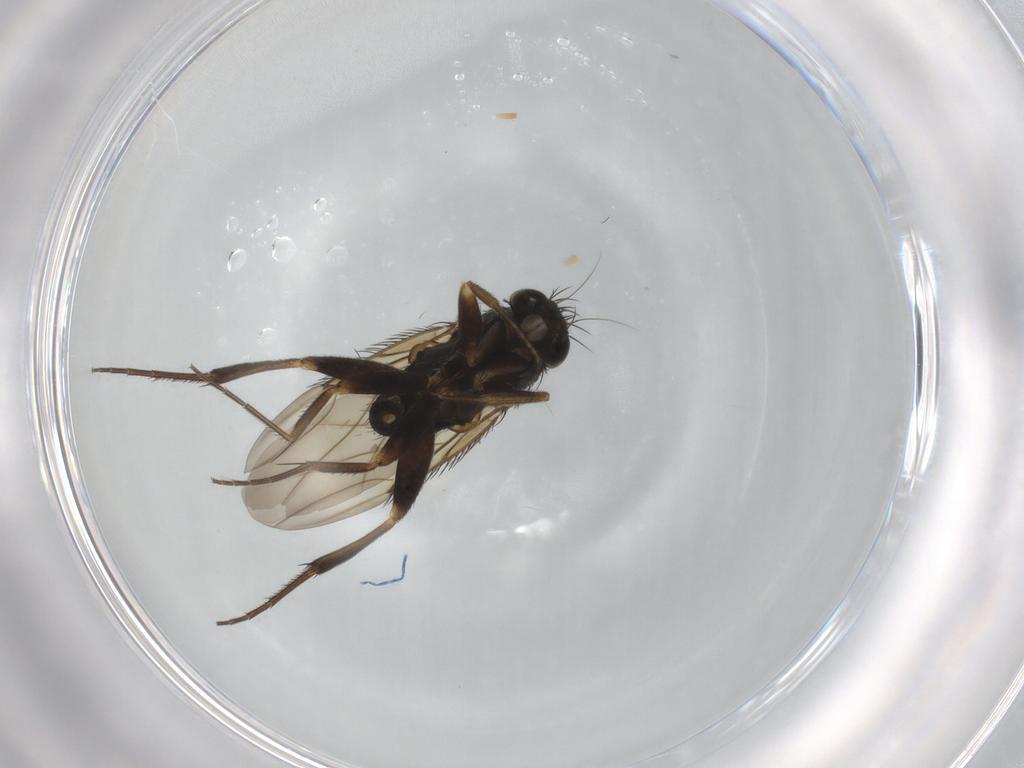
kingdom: Animalia
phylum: Arthropoda
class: Insecta
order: Diptera
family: Phoridae
